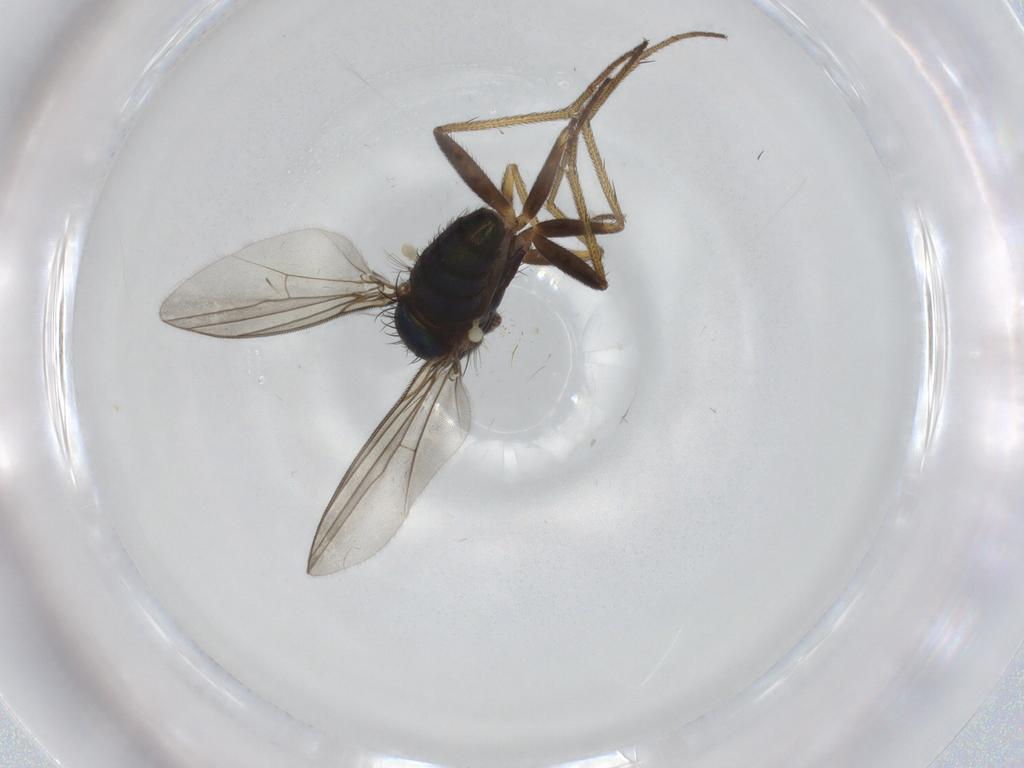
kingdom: Animalia
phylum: Arthropoda
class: Insecta
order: Diptera
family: Dolichopodidae
